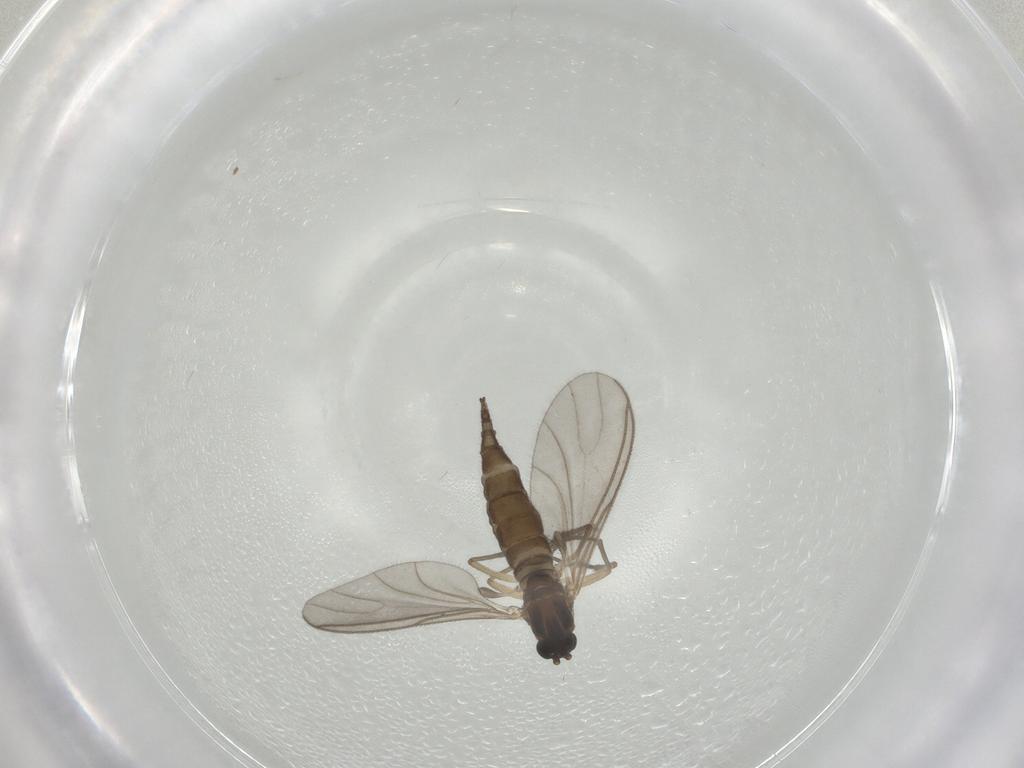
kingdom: Animalia
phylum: Arthropoda
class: Insecta
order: Diptera
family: Sciaridae
